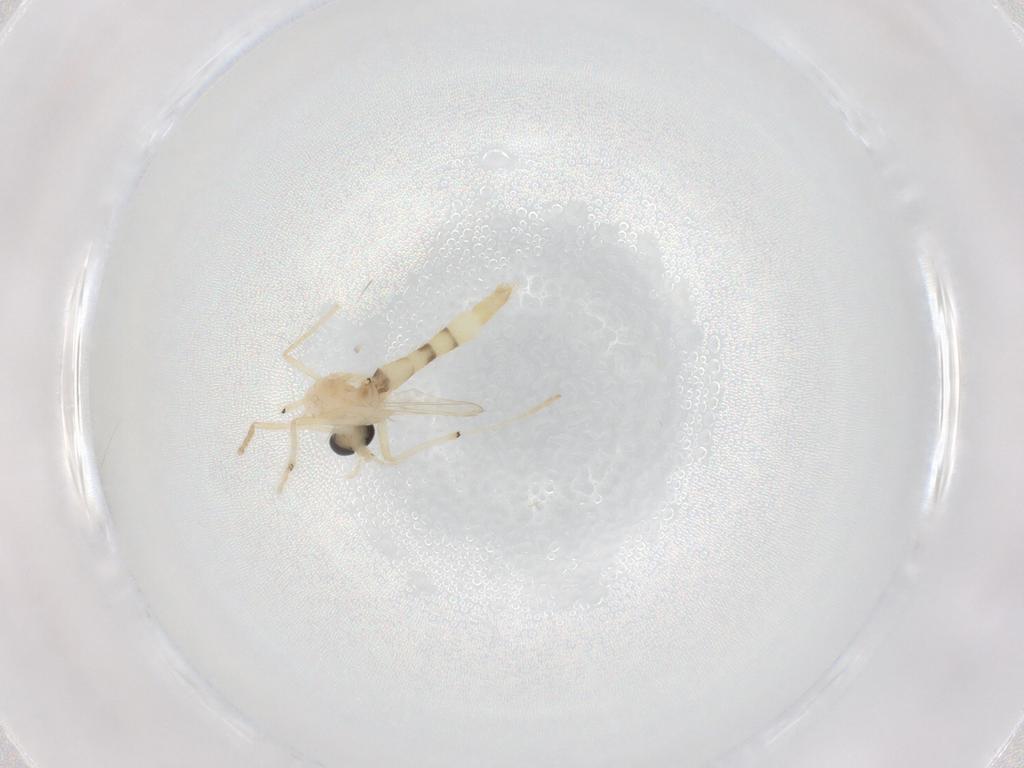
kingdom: Animalia
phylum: Arthropoda
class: Insecta
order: Diptera
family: Chironomidae
